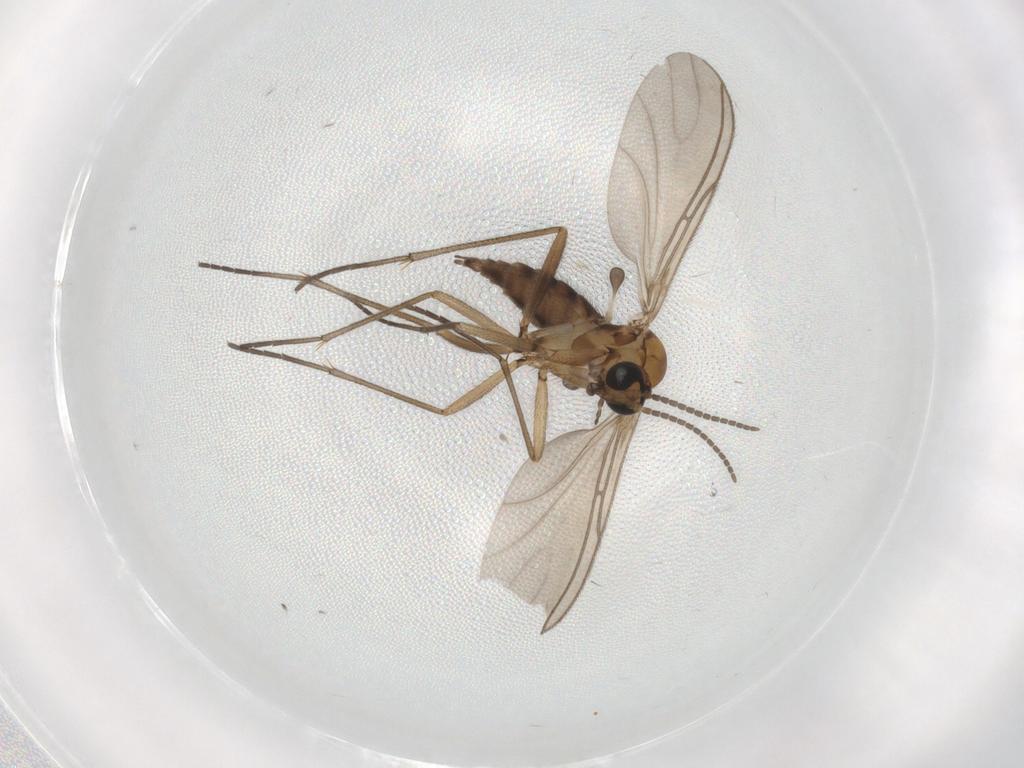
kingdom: Animalia
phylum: Arthropoda
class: Insecta
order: Diptera
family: Sciaridae
